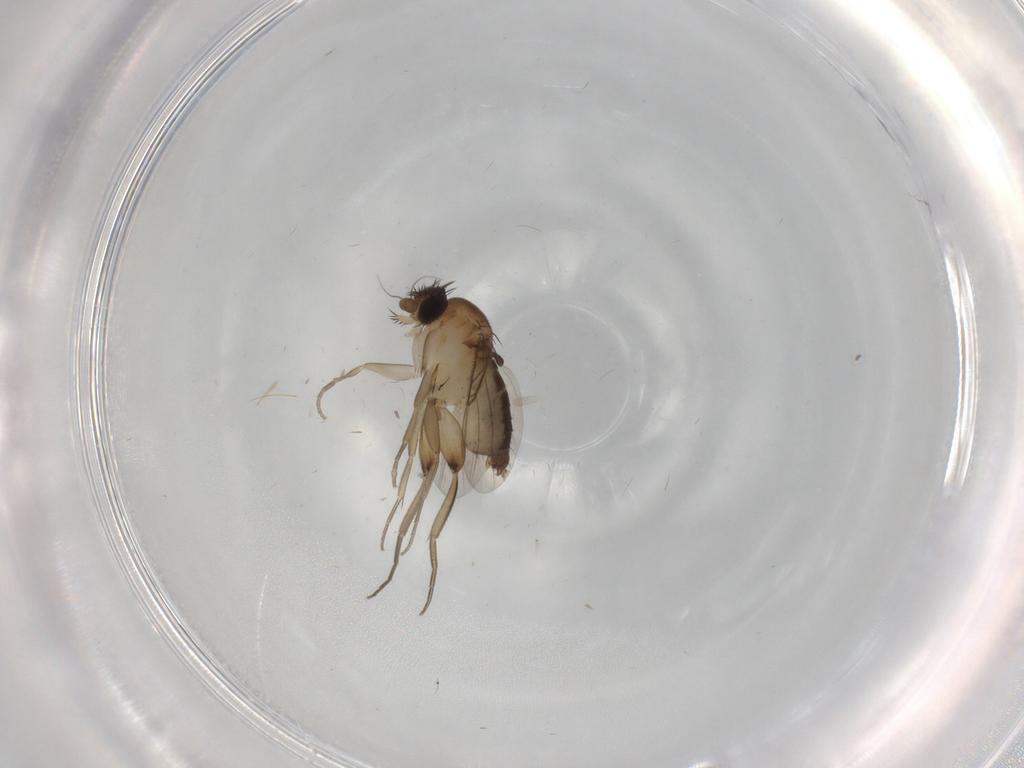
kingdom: Animalia
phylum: Arthropoda
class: Insecta
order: Diptera
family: Phoridae
